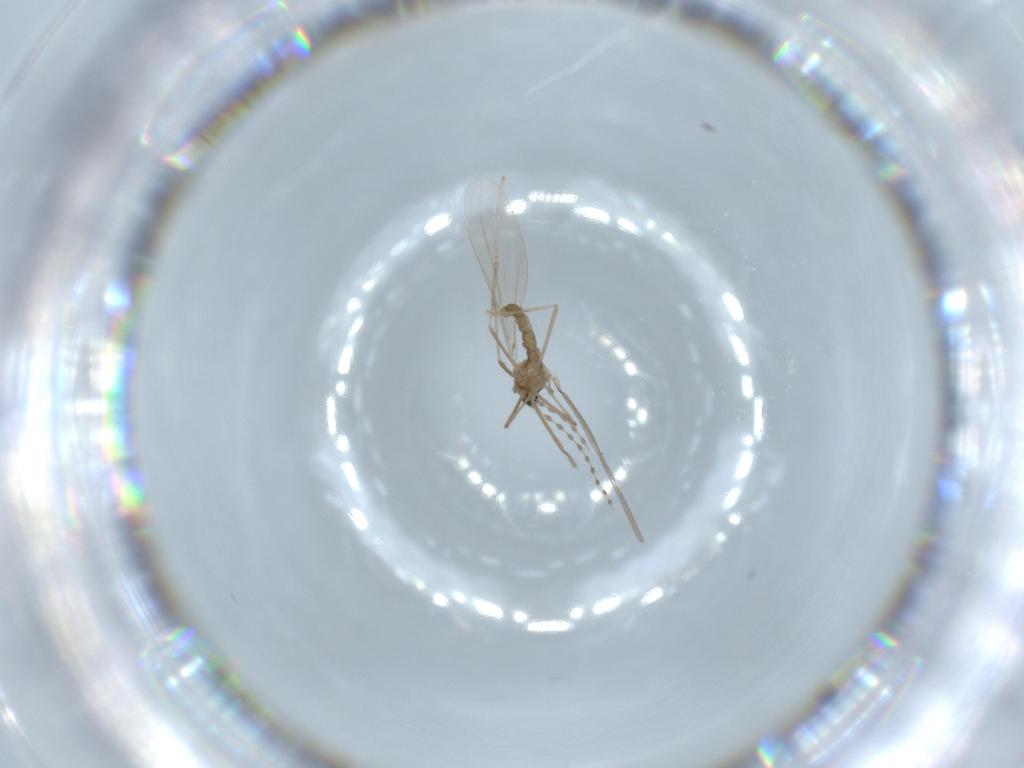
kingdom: Animalia
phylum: Arthropoda
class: Insecta
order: Diptera
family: Cecidomyiidae
